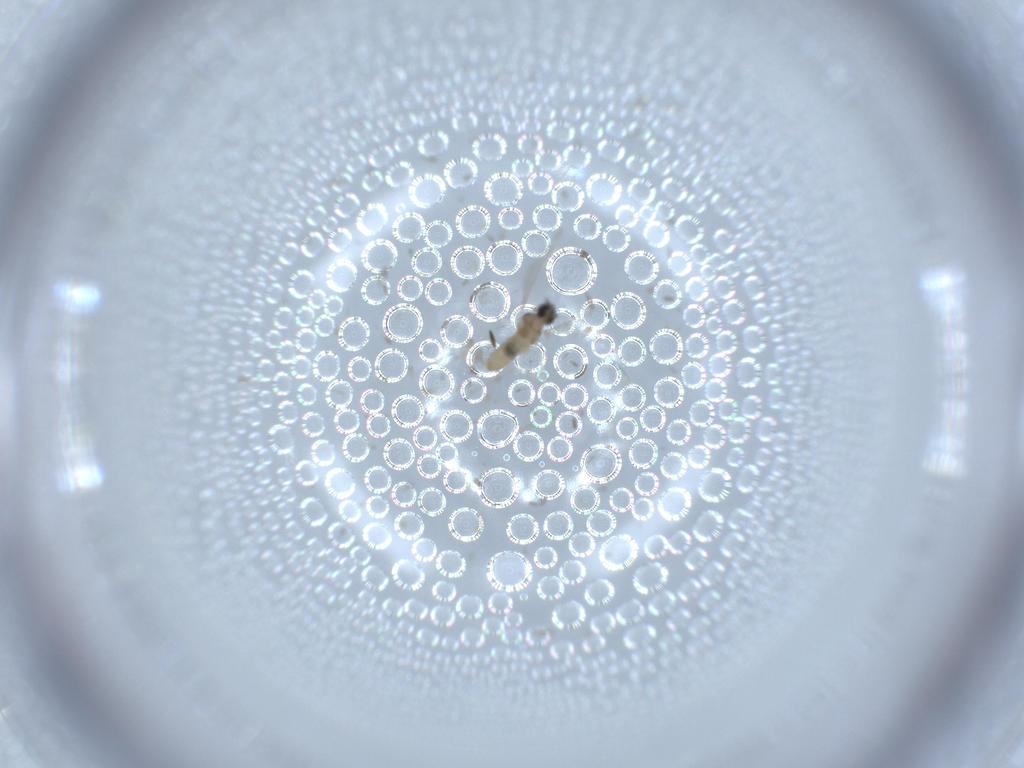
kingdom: Animalia
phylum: Arthropoda
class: Insecta
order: Diptera
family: Cecidomyiidae
